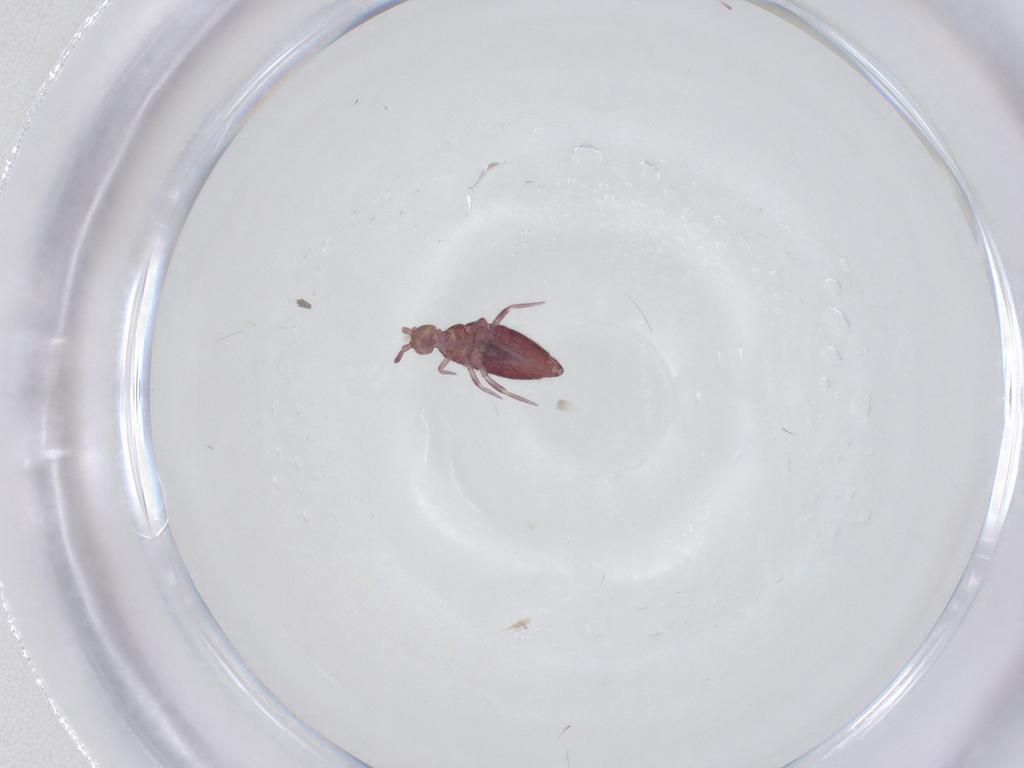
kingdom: Animalia
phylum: Arthropoda
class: Collembola
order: Entomobryomorpha
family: Entomobryidae
